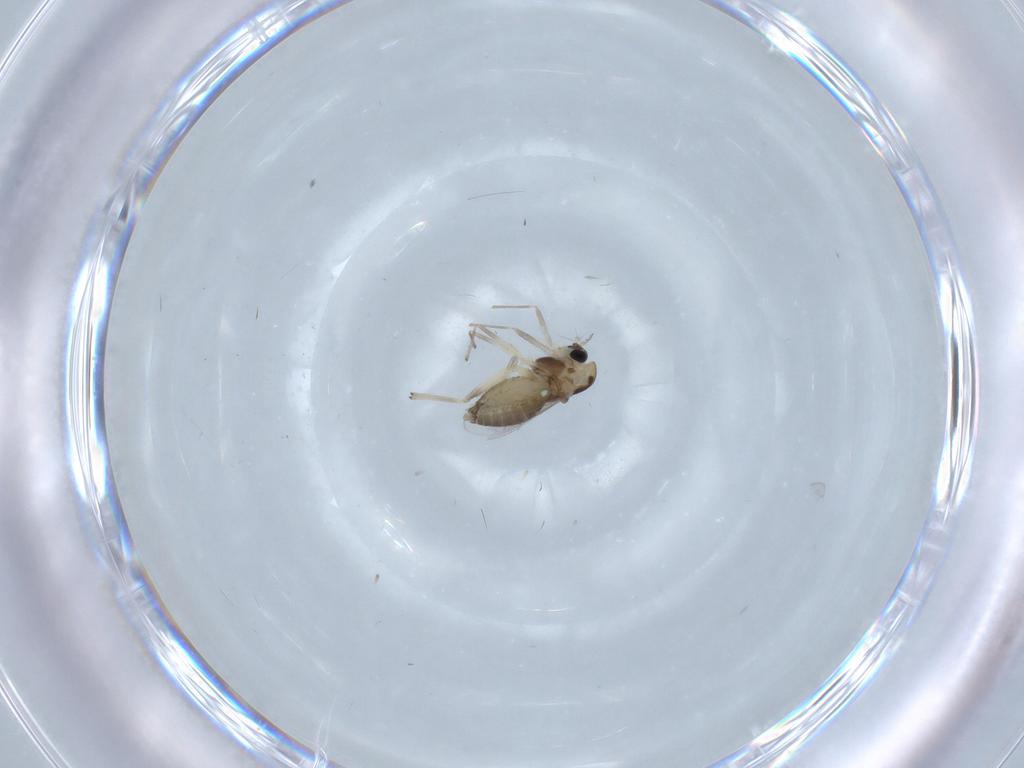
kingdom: Animalia
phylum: Arthropoda
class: Insecta
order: Diptera
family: Chironomidae
